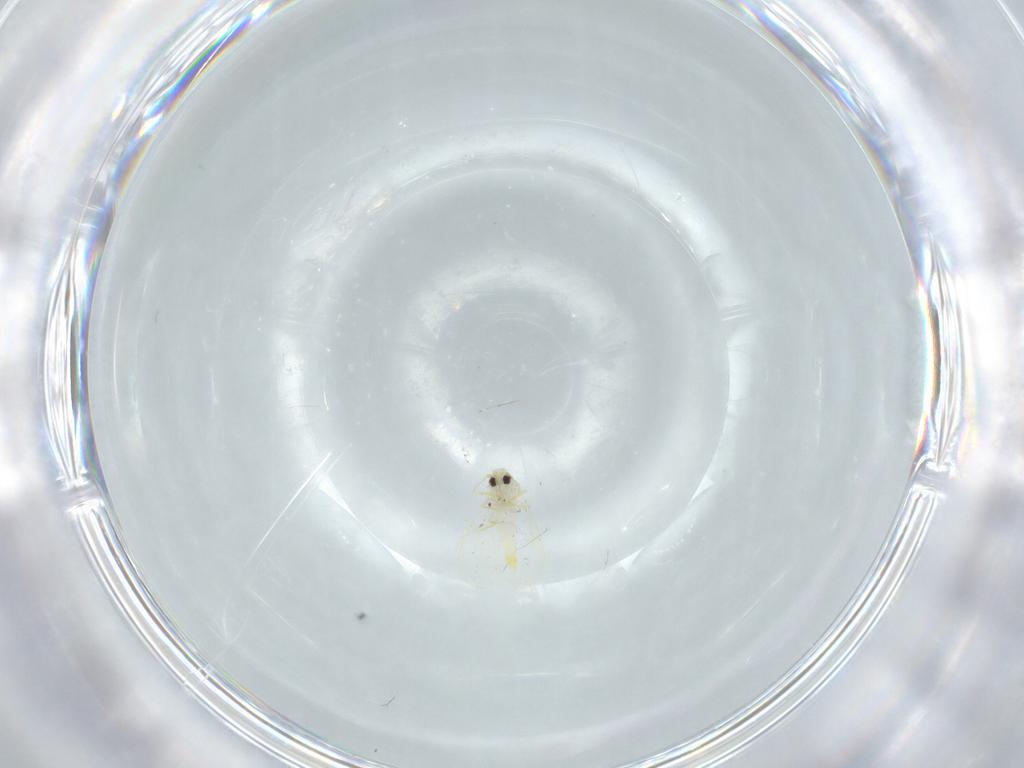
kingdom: Animalia
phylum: Arthropoda
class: Insecta
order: Hemiptera
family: Aleyrodidae
